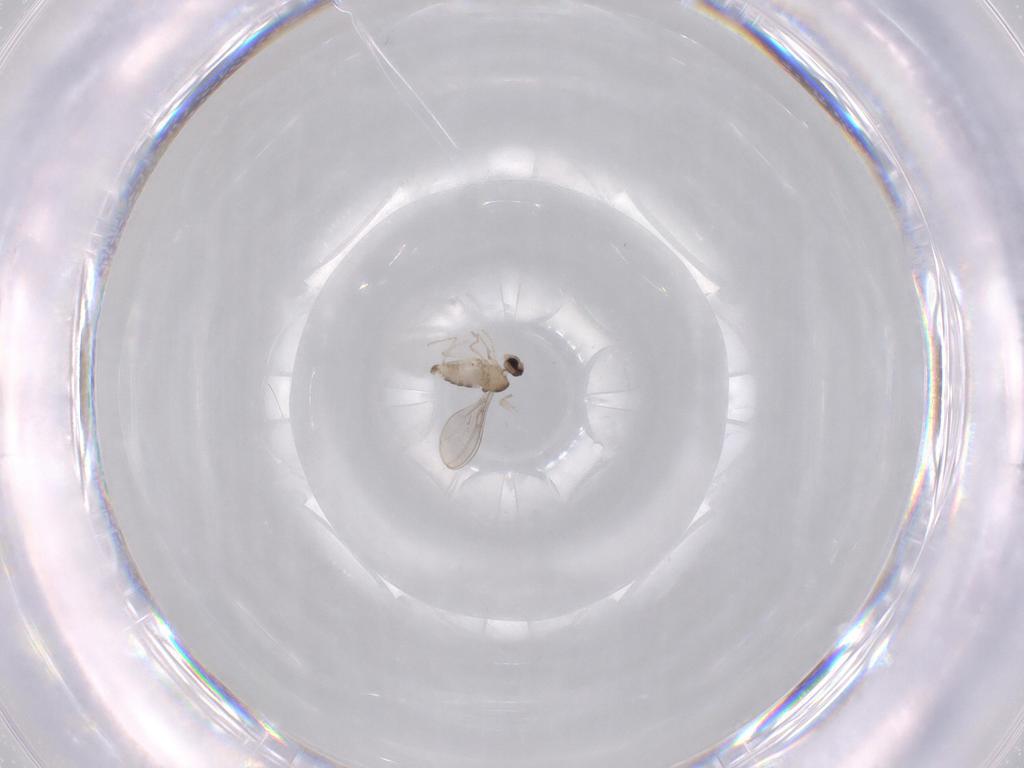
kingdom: Animalia
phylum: Arthropoda
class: Insecta
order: Diptera
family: Cecidomyiidae
